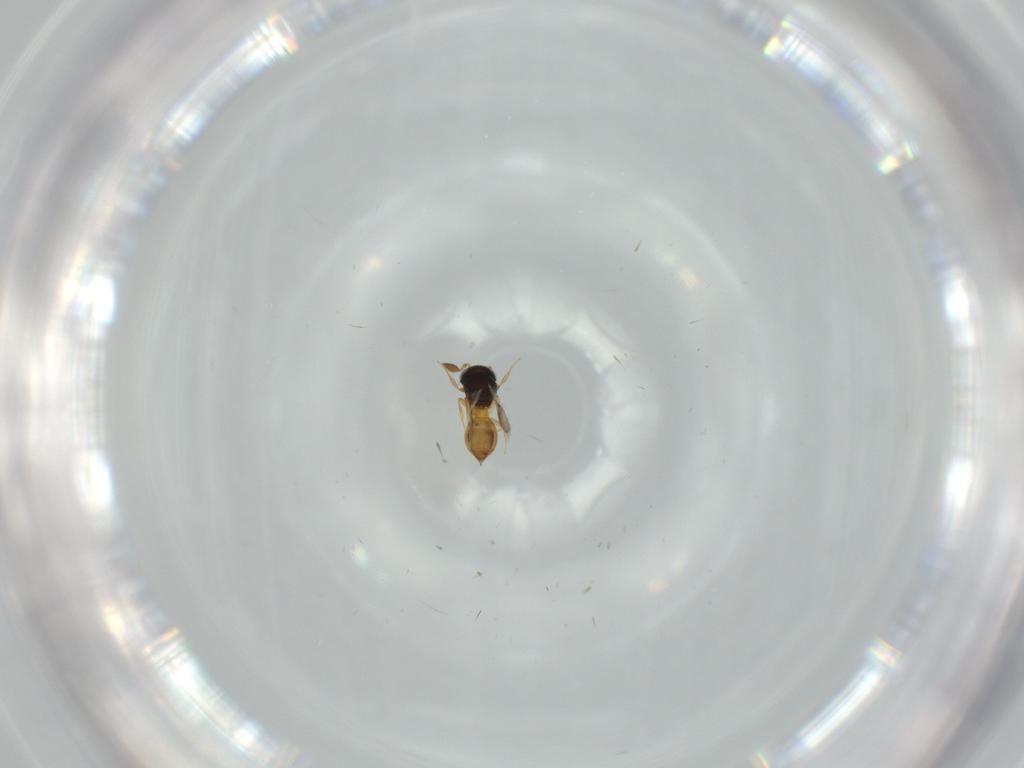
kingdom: Animalia
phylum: Arthropoda
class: Insecta
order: Hymenoptera
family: Scelionidae
